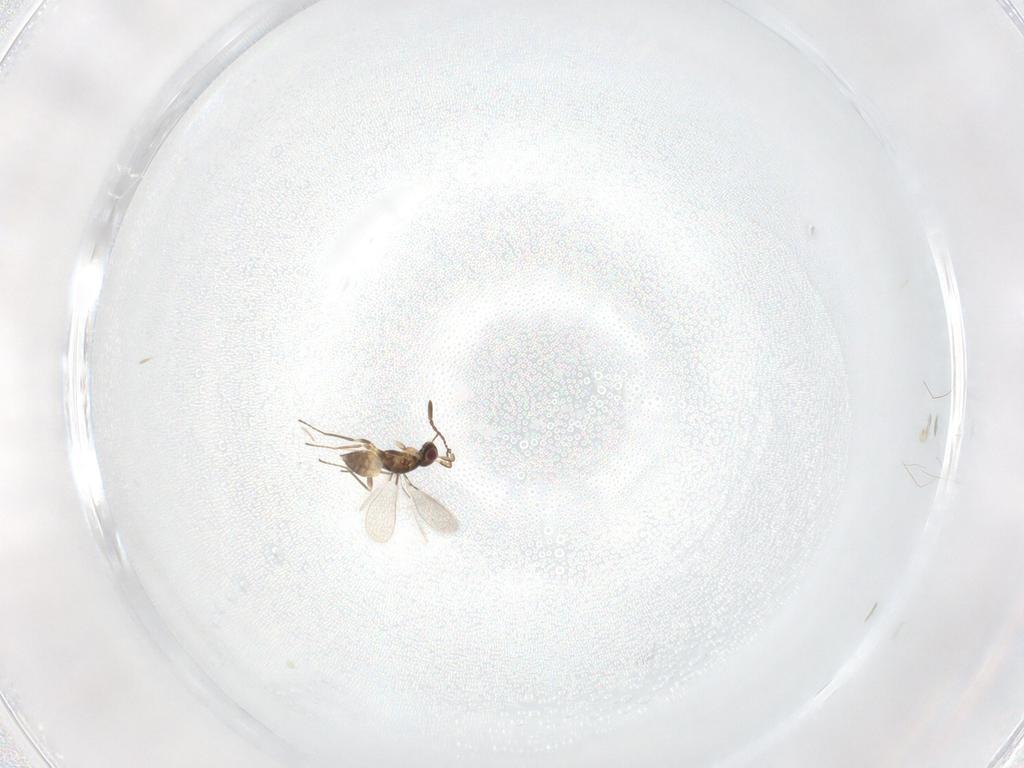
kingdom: Animalia
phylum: Arthropoda
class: Insecta
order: Hymenoptera
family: Mymaridae
